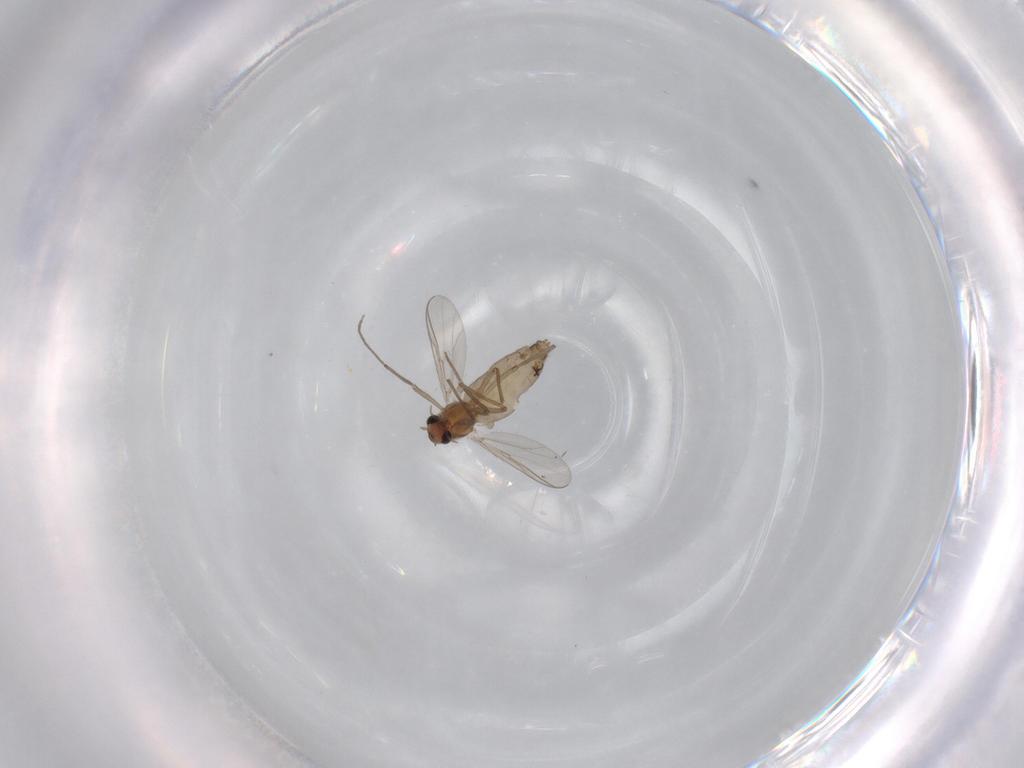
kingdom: Animalia
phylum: Arthropoda
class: Insecta
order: Diptera
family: Chironomidae
